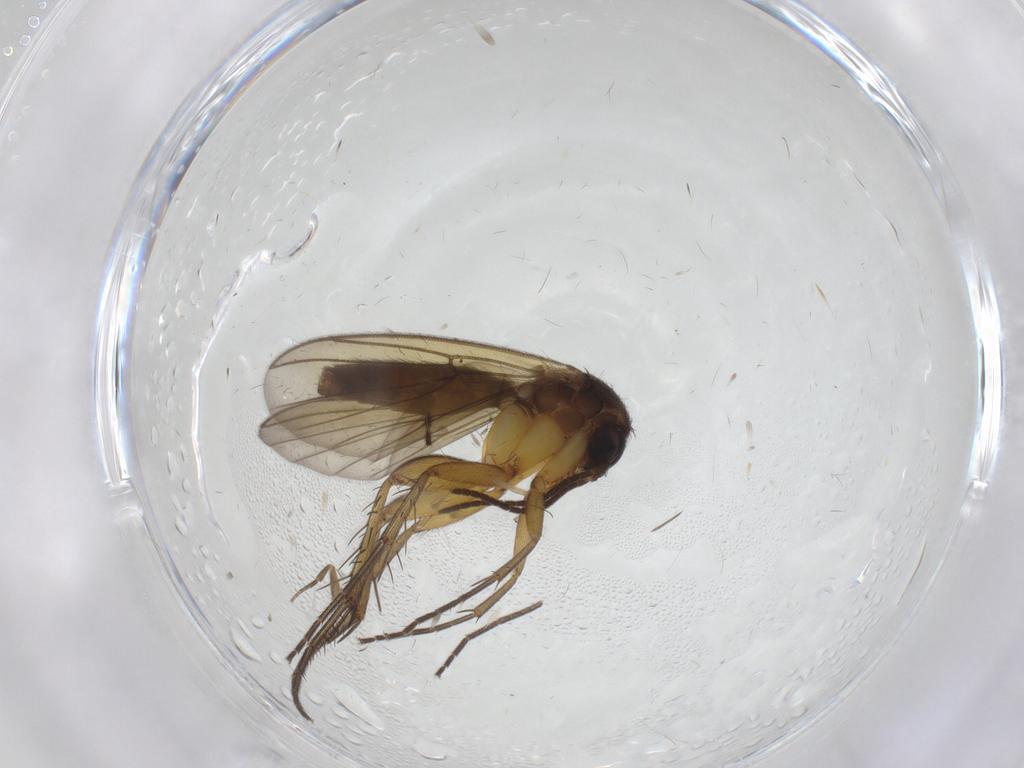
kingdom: Animalia
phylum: Arthropoda
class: Insecta
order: Diptera
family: Mycetophilidae
